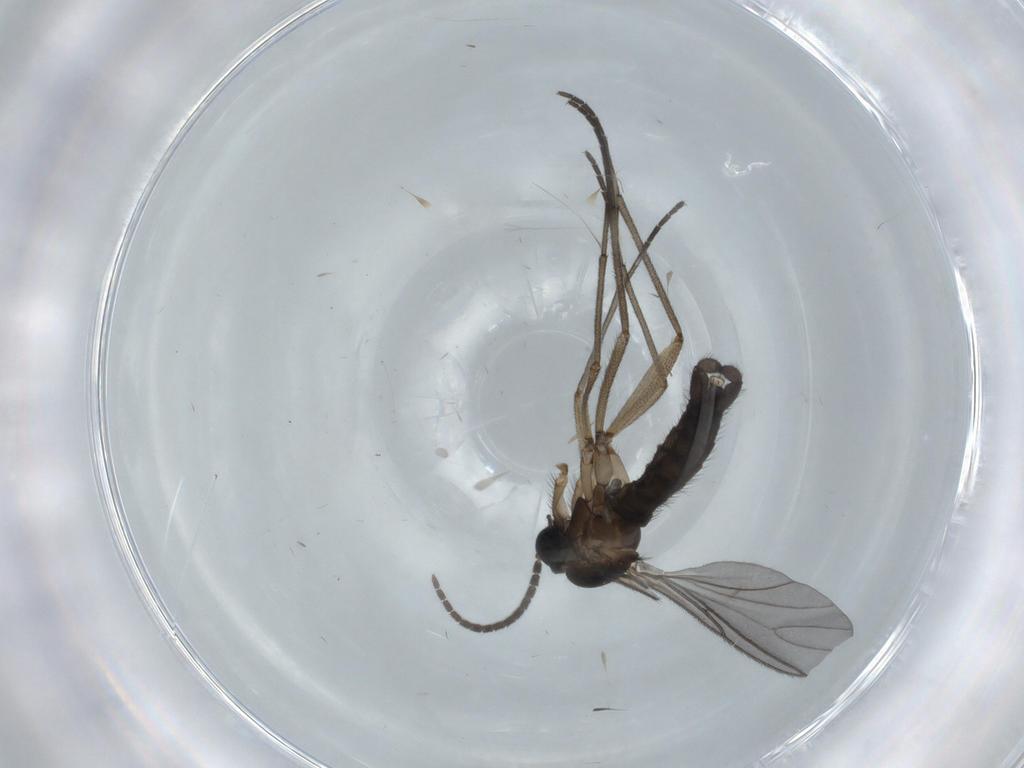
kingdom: Animalia
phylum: Arthropoda
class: Insecta
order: Diptera
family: Sciaridae
